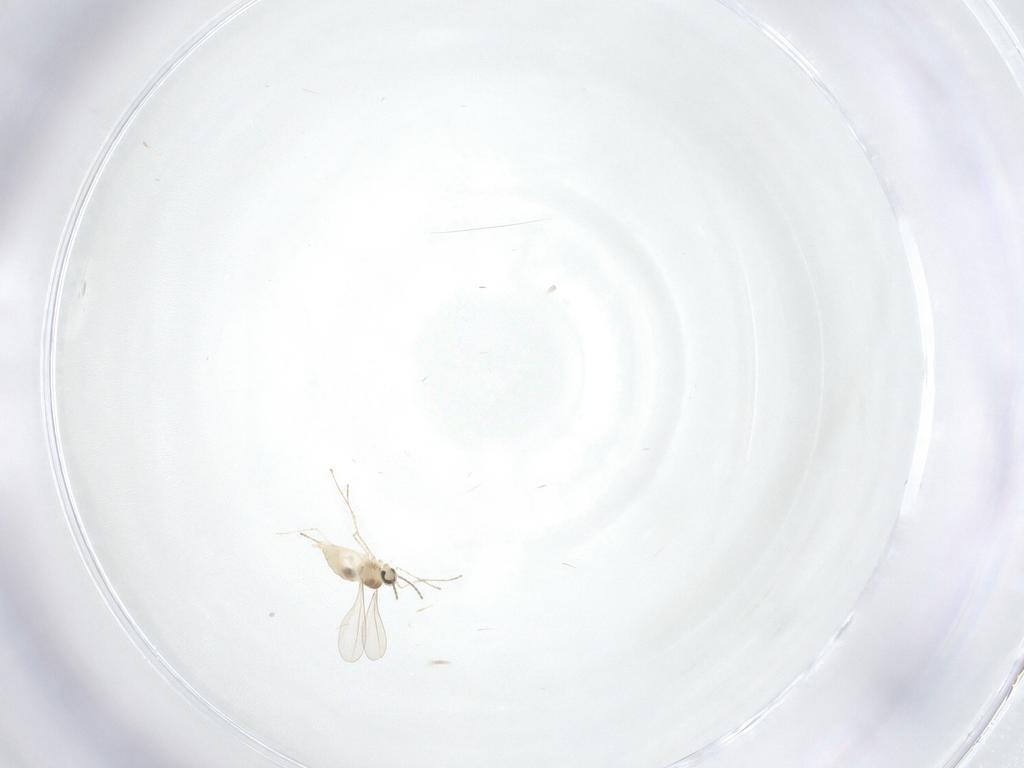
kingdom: Animalia
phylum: Arthropoda
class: Insecta
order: Diptera
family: Cecidomyiidae
